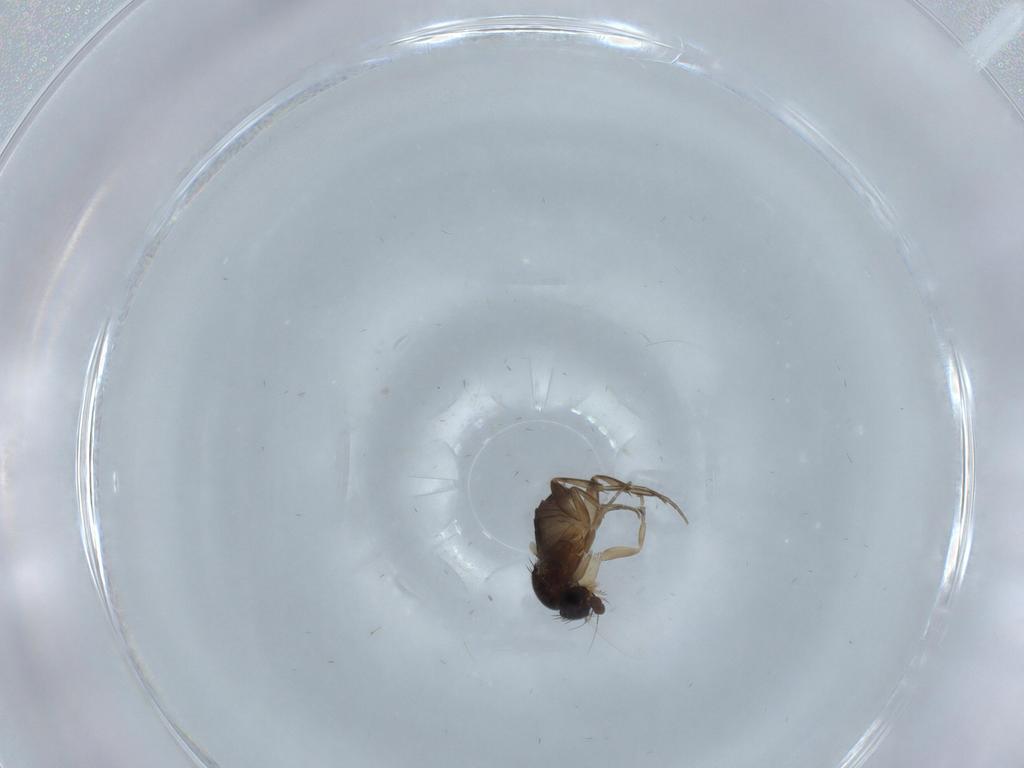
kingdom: Animalia
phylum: Arthropoda
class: Insecta
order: Diptera
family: Phoridae
